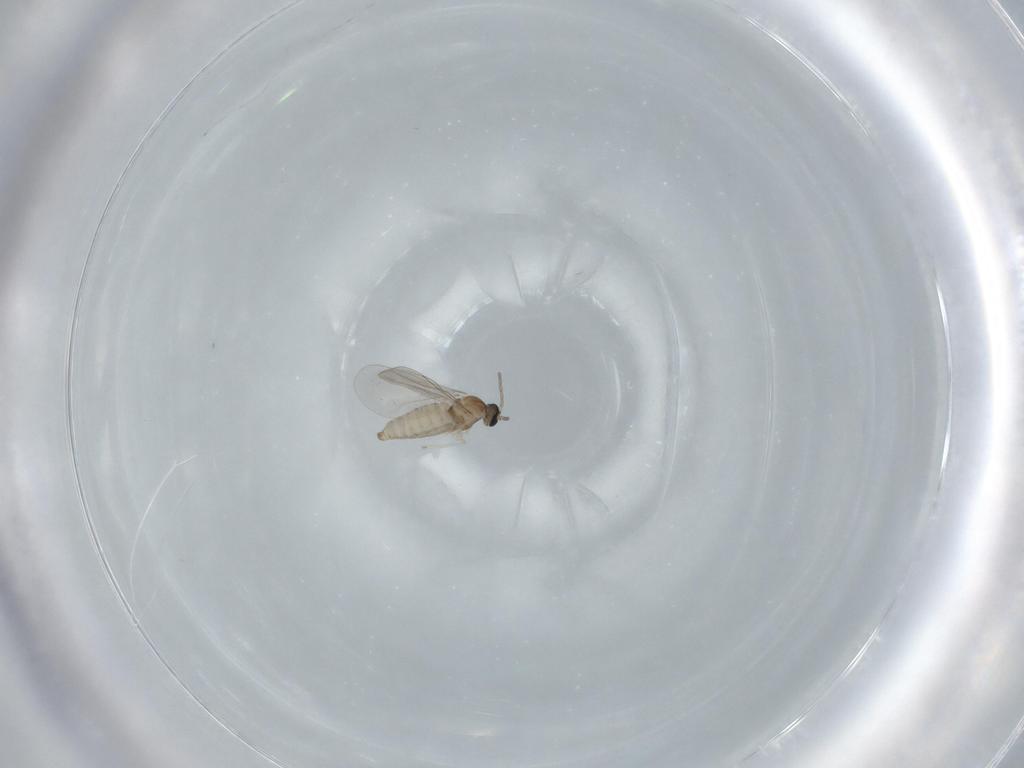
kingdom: Animalia
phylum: Arthropoda
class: Insecta
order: Diptera
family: Cecidomyiidae
